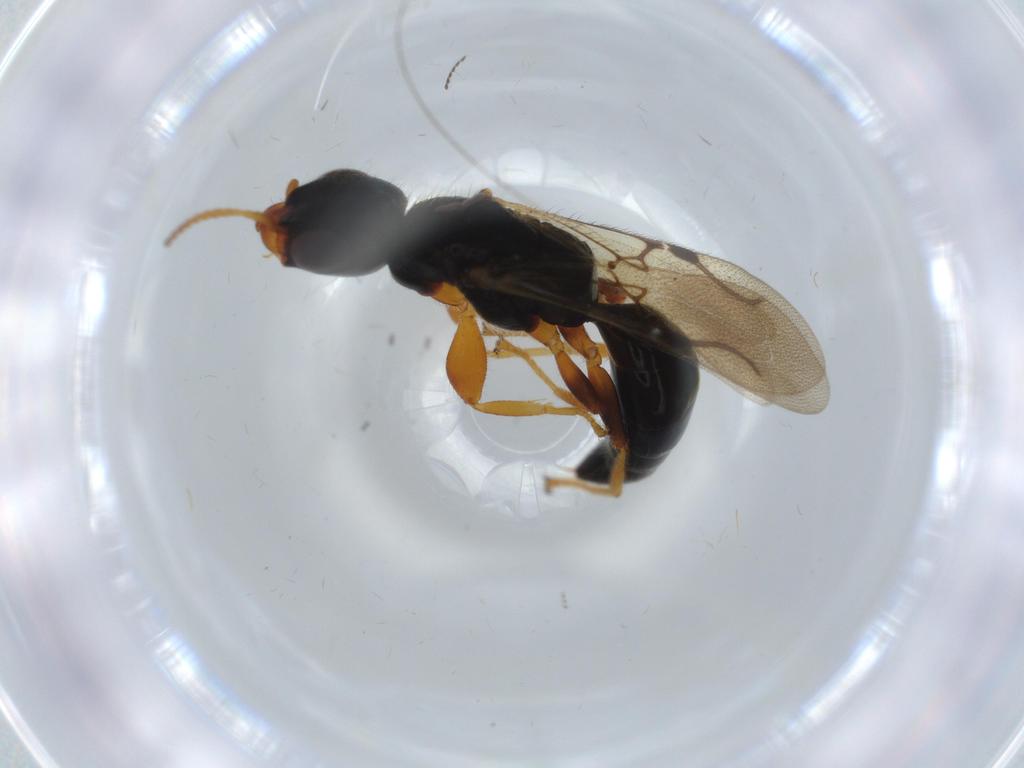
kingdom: Animalia
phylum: Arthropoda
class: Insecta
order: Hymenoptera
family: Bethylidae
